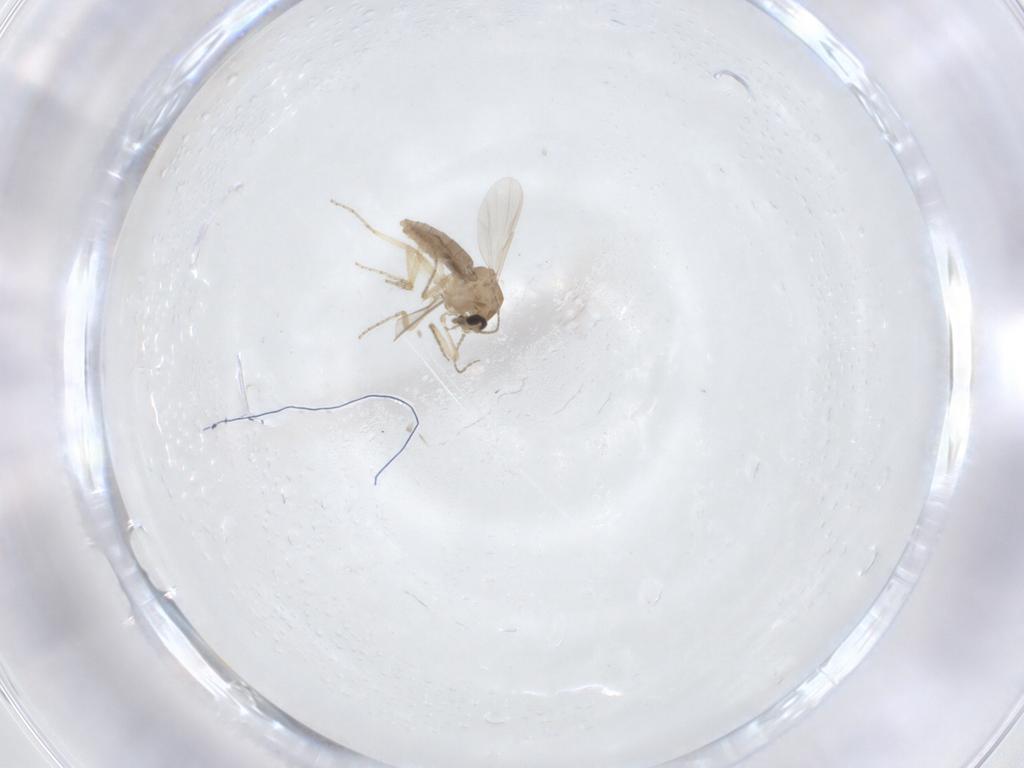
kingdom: Animalia
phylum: Arthropoda
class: Insecta
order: Diptera
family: Ceratopogonidae
